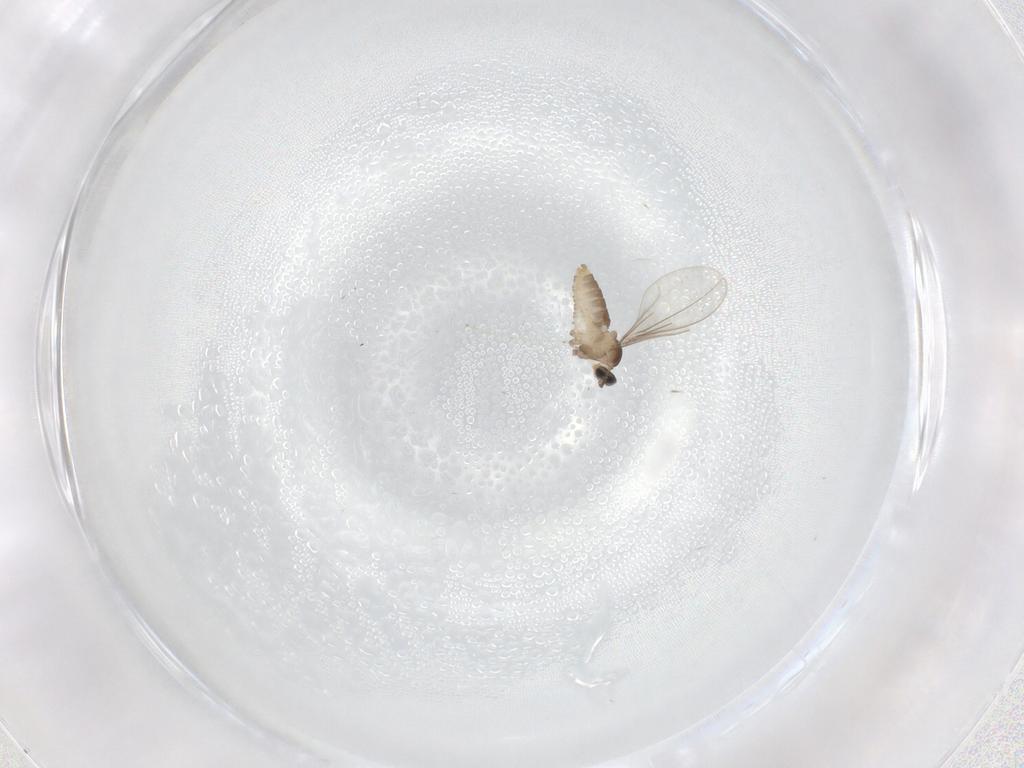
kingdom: Animalia
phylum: Arthropoda
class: Insecta
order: Diptera
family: Cecidomyiidae
